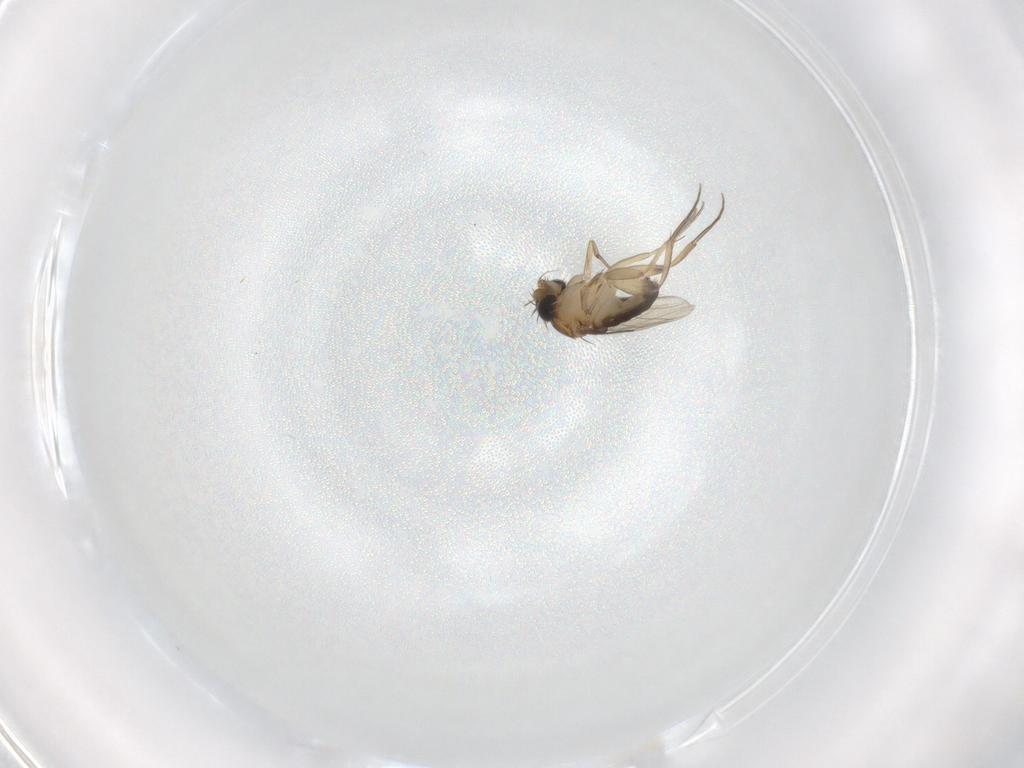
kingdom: Animalia
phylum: Arthropoda
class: Insecta
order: Diptera
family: Phoridae
